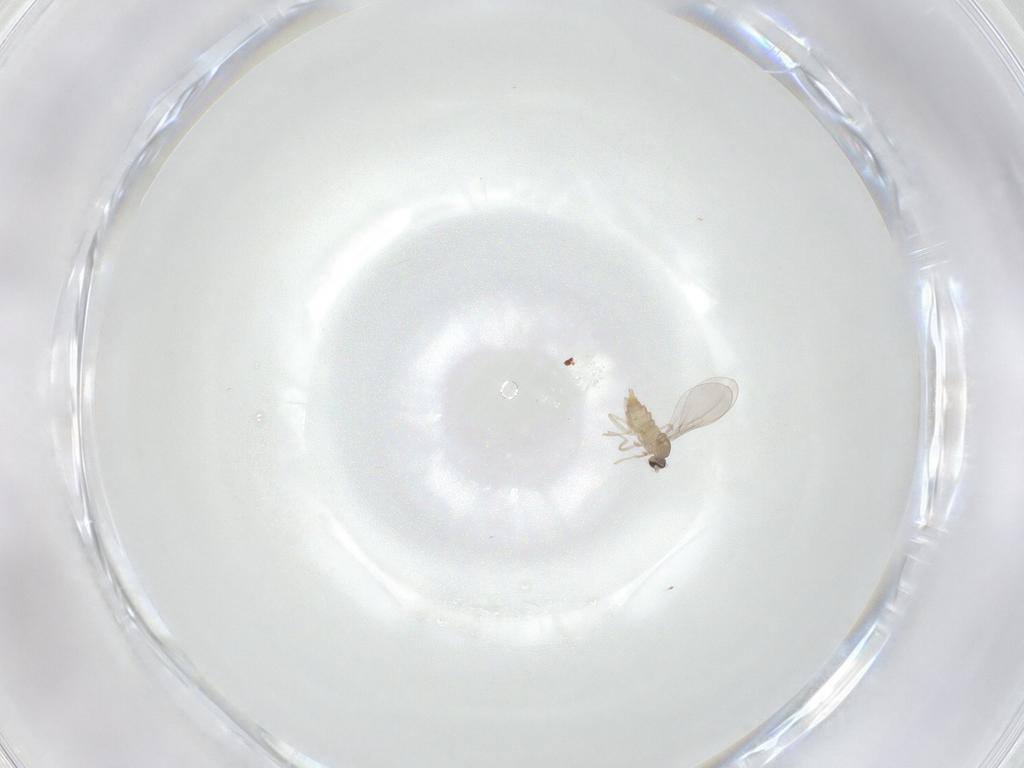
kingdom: Animalia
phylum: Arthropoda
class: Insecta
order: Diptera
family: Cecidomyiidae
